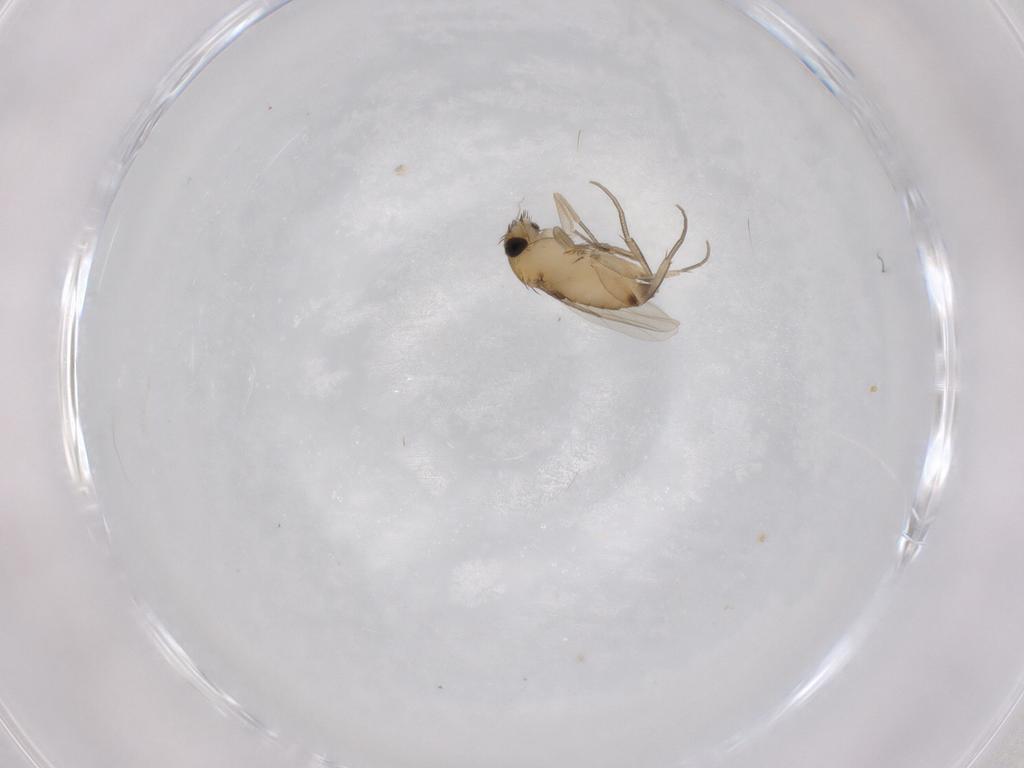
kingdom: Animalia
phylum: Arthropoda
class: Insecta
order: Diptera
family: Phoridae
